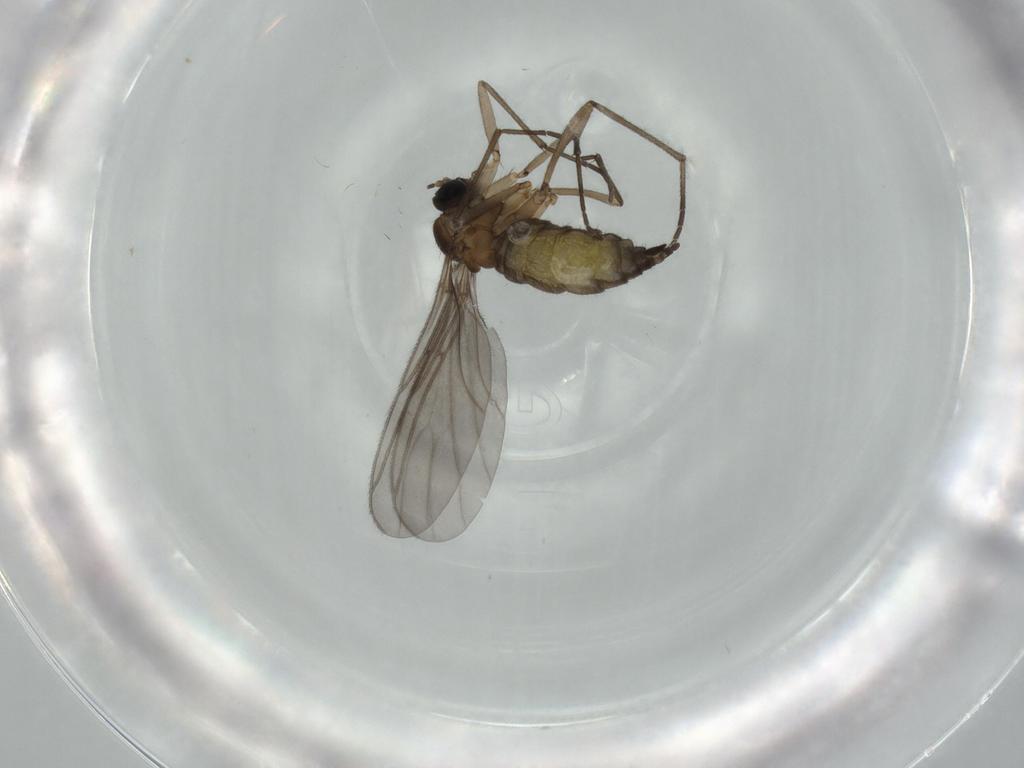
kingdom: Animalia
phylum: Arthropoda
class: Insecta
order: Diptera
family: Sciaridae
